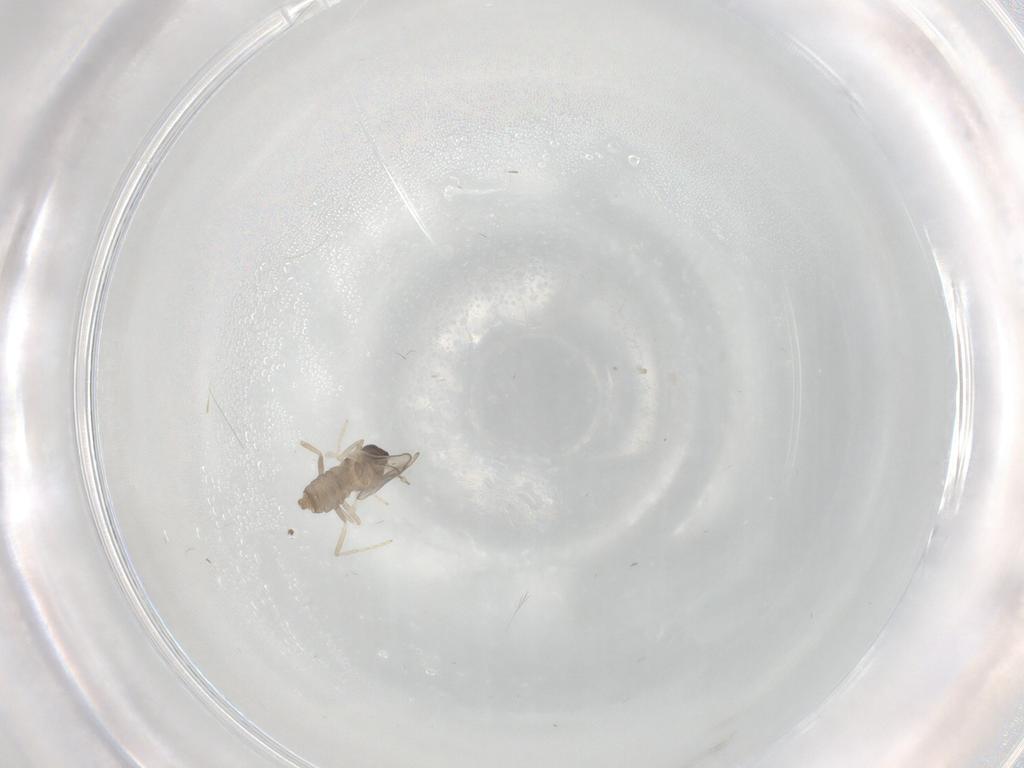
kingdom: Animalia
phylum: Arthropoda
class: Insecta
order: Diptera
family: Cecidomyiidae
